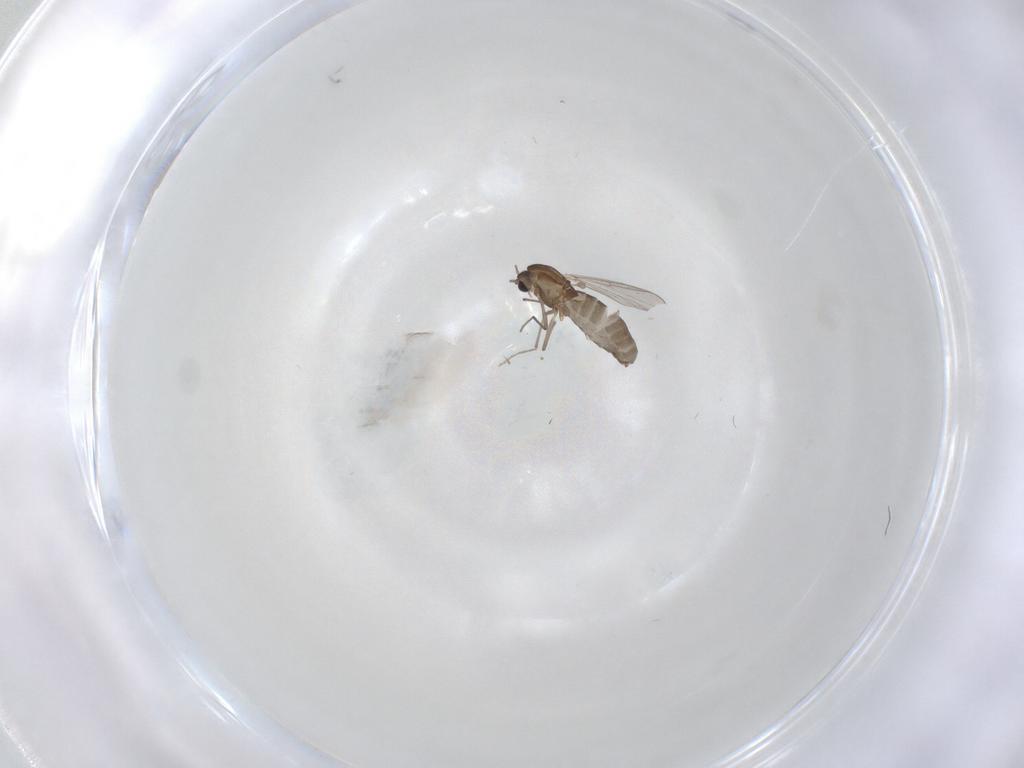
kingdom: Animalia
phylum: Arthropoda
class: Insecta
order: Diptera
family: Chironomidae
